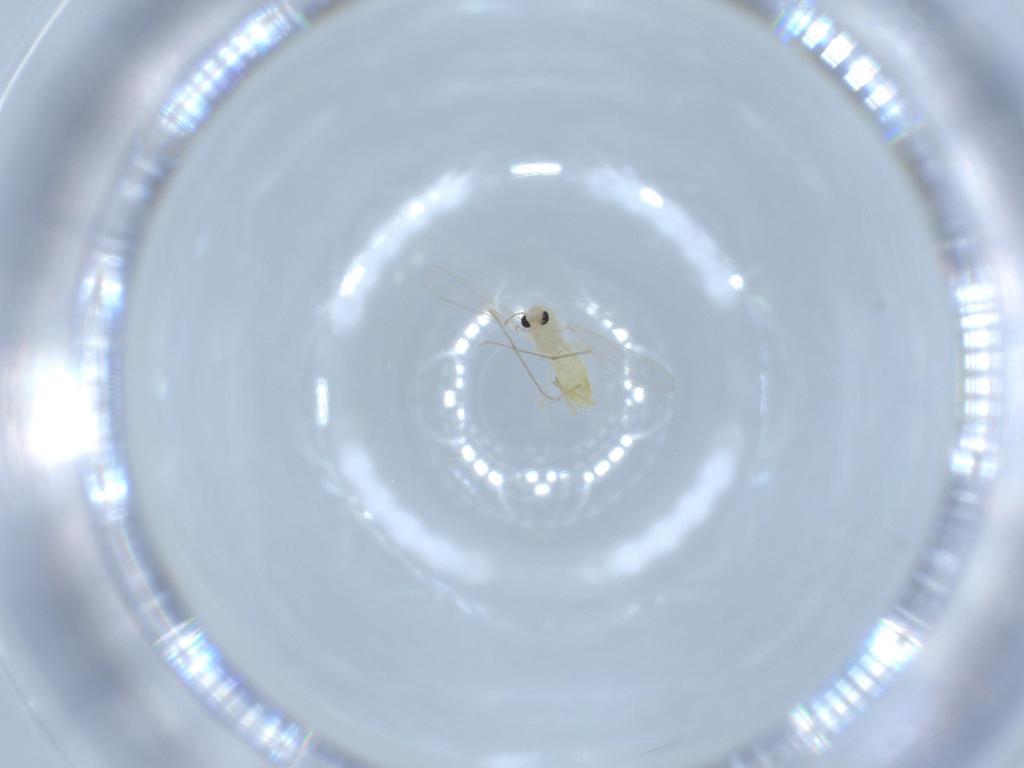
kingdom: Animalia
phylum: Arthropoda
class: Insecta
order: Diptera
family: Chironomidae
